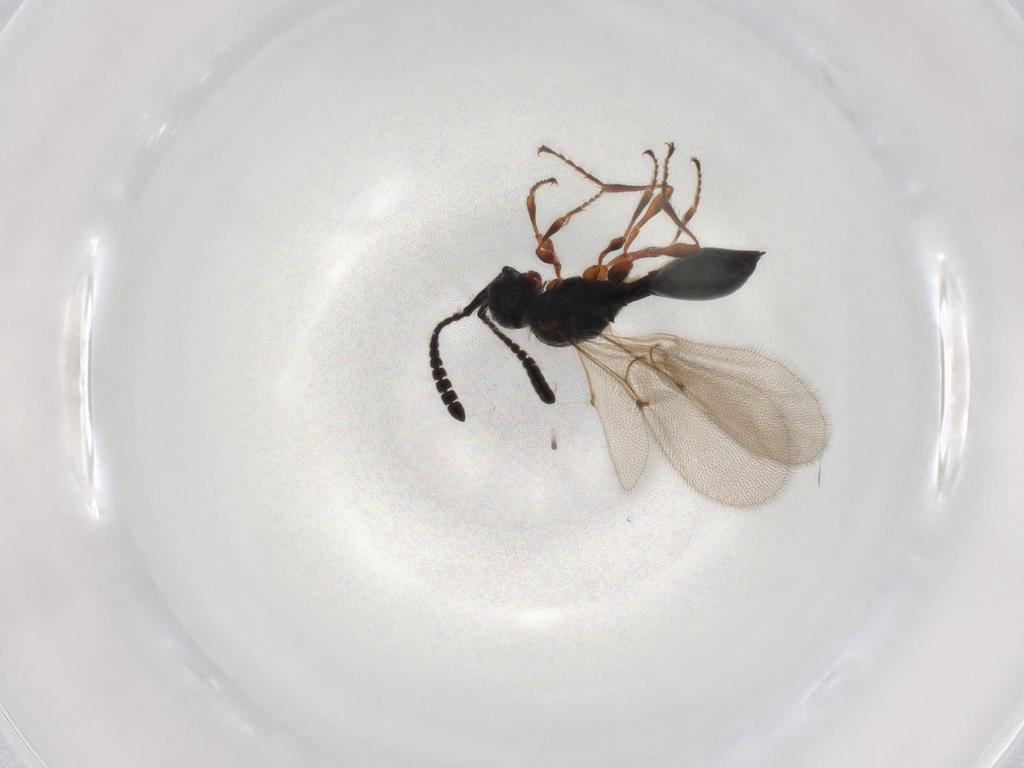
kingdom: Animalia
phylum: Arthropoda
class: Insecta
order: Hymenoptera
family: Diapriidae
